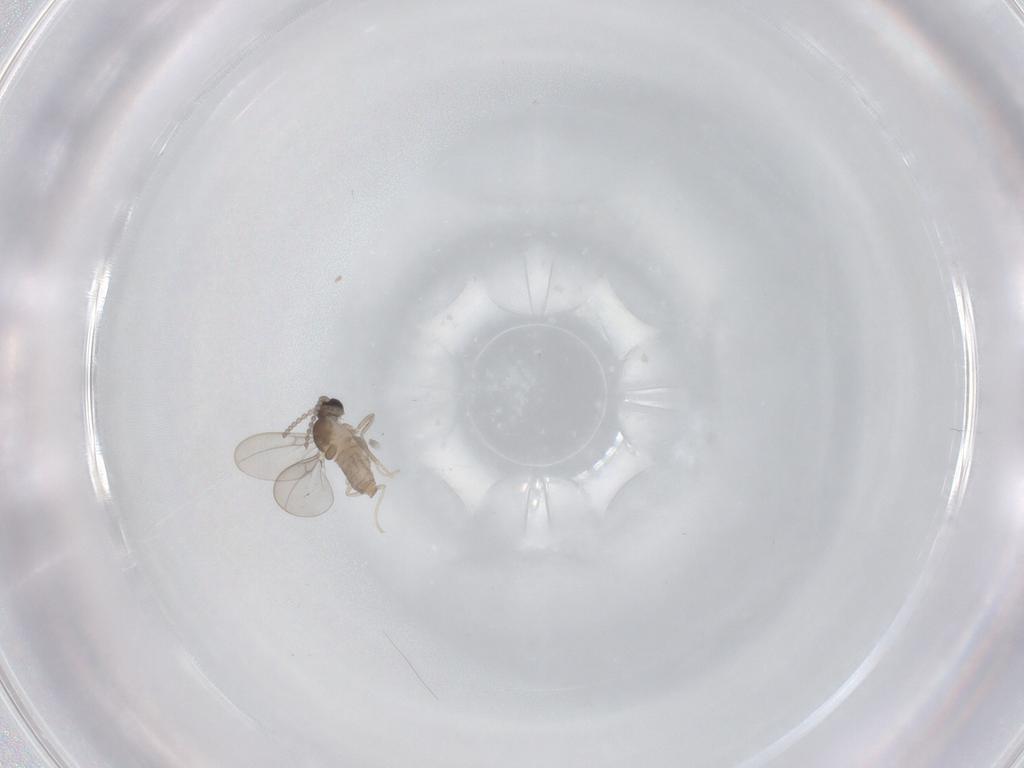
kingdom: Animalia
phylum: Arthropoda
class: Insecta
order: Diptera
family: Cecidomyiidae
